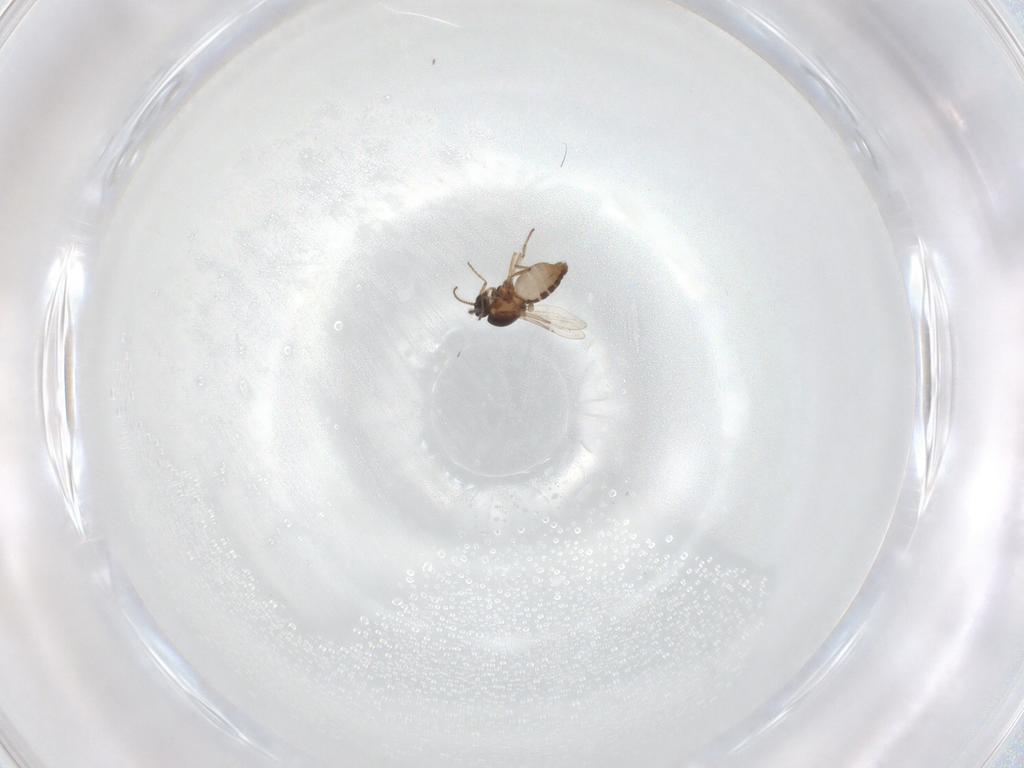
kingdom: Animalia
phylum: Arthropoda
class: Insecta
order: Diptera
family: Ceratopogonidae
